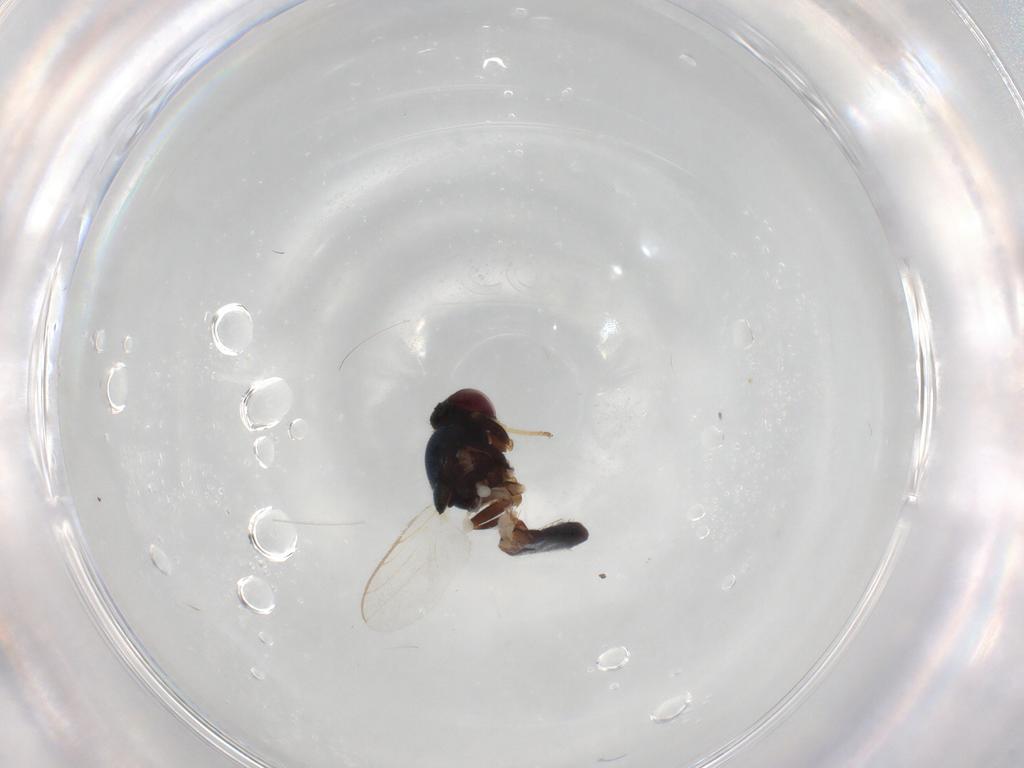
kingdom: Animalia
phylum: Arthropoda
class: Insecta
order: Diptera
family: Chloropidae
